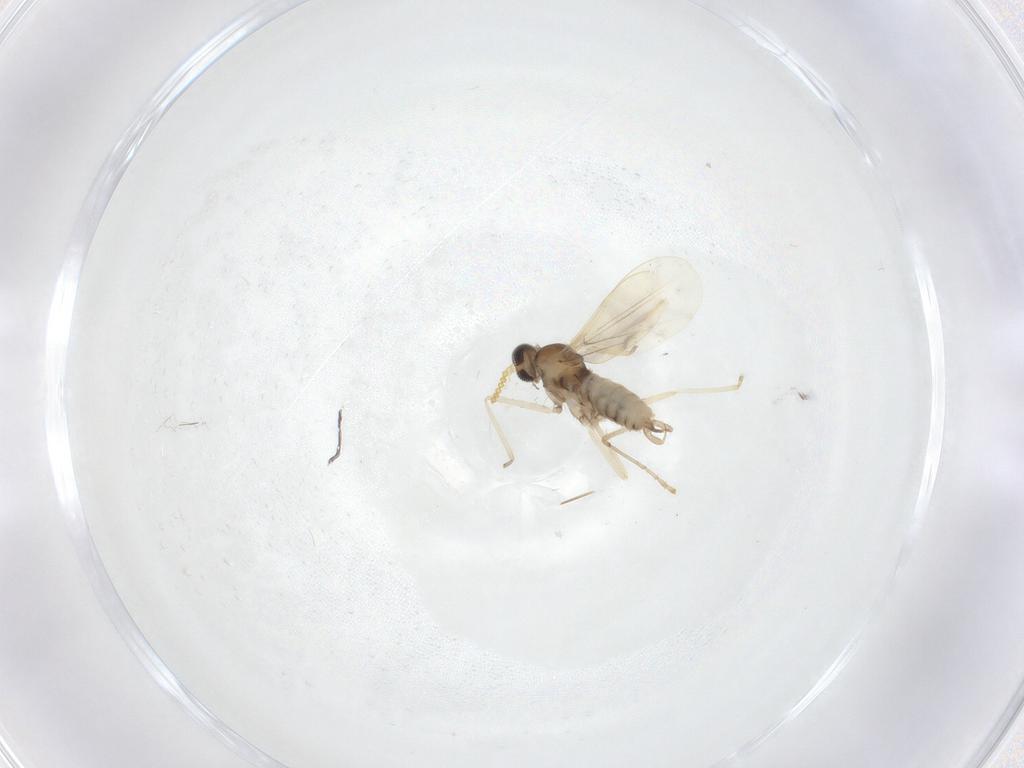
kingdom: Animalia
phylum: Arthropoda
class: Insecta
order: Diptera
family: Cecidomyiidae
